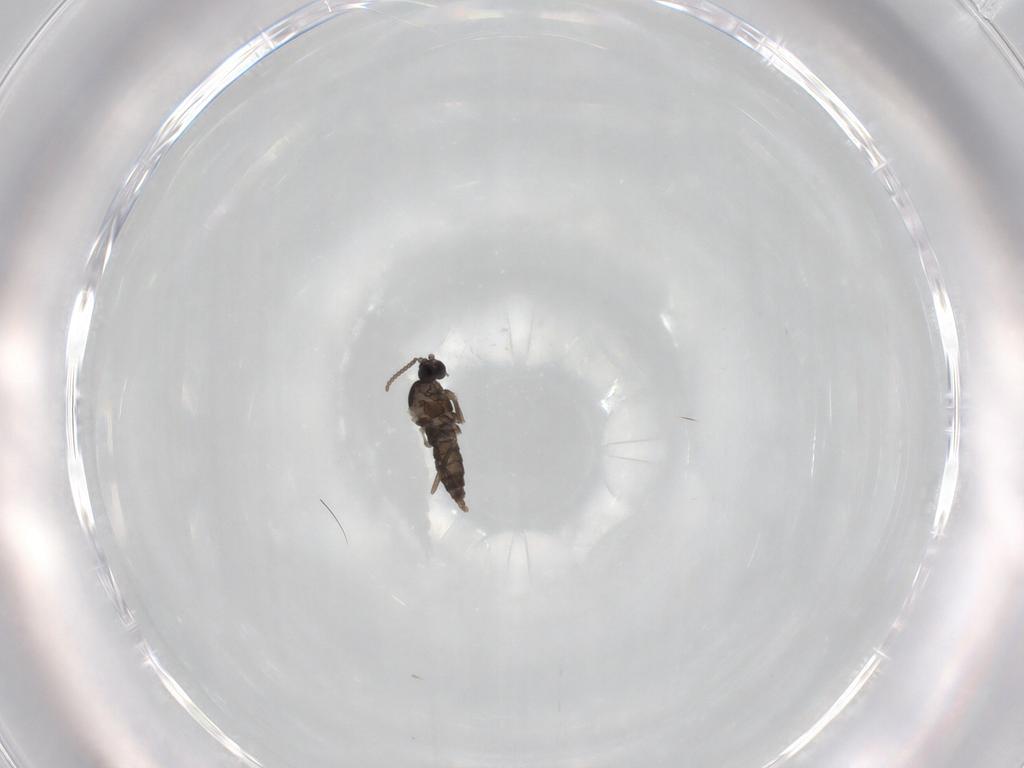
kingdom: Animalia
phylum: Arthropoda
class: Insecta
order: Diptera
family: Cecidomyiidae
